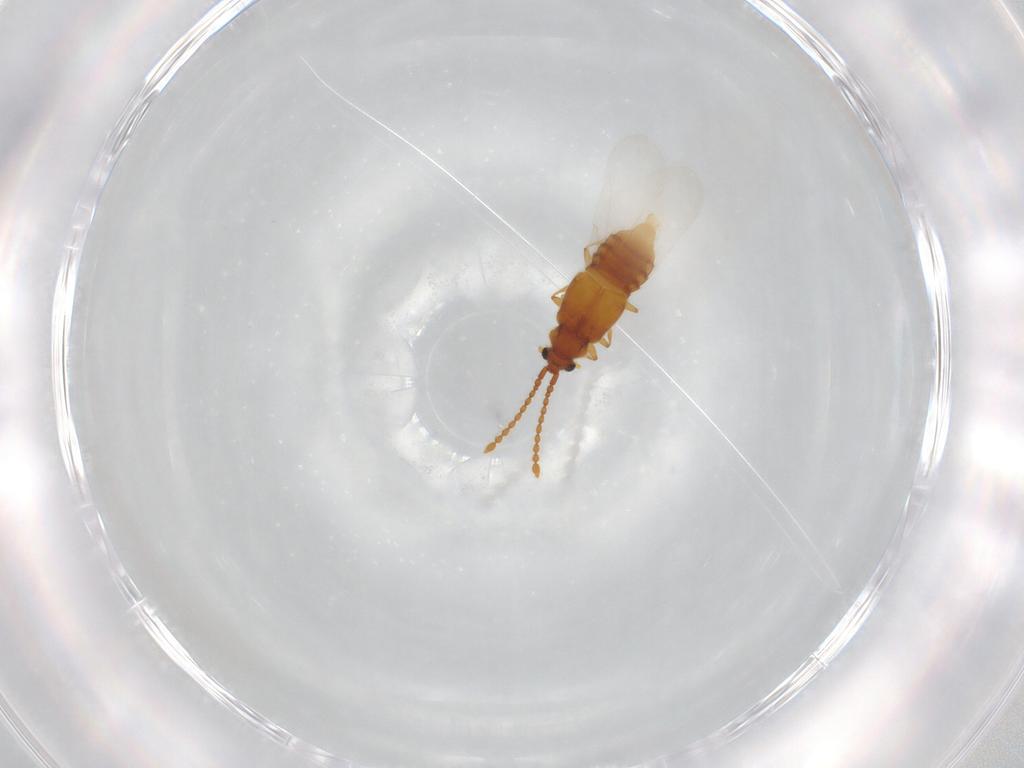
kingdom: Animalia
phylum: Arthropoda
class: Insecta
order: Coleoptera
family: Staphylinidae
